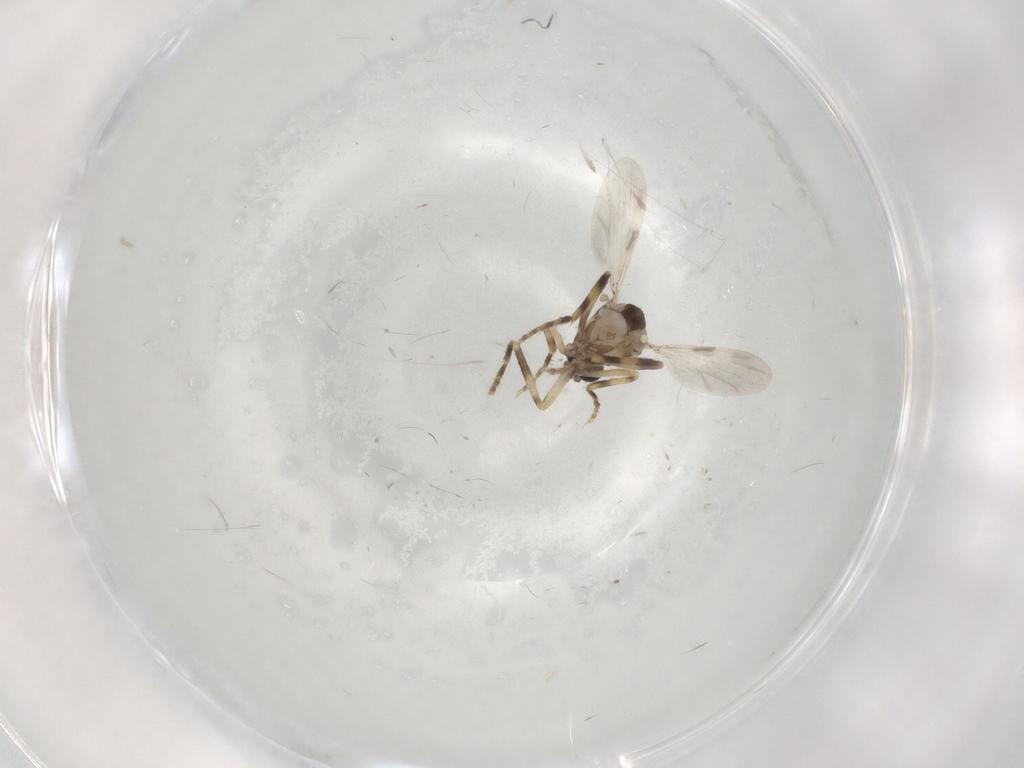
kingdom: Animalia
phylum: Arthropoda
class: Insecta
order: Diptera
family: Ceratopogonidae
